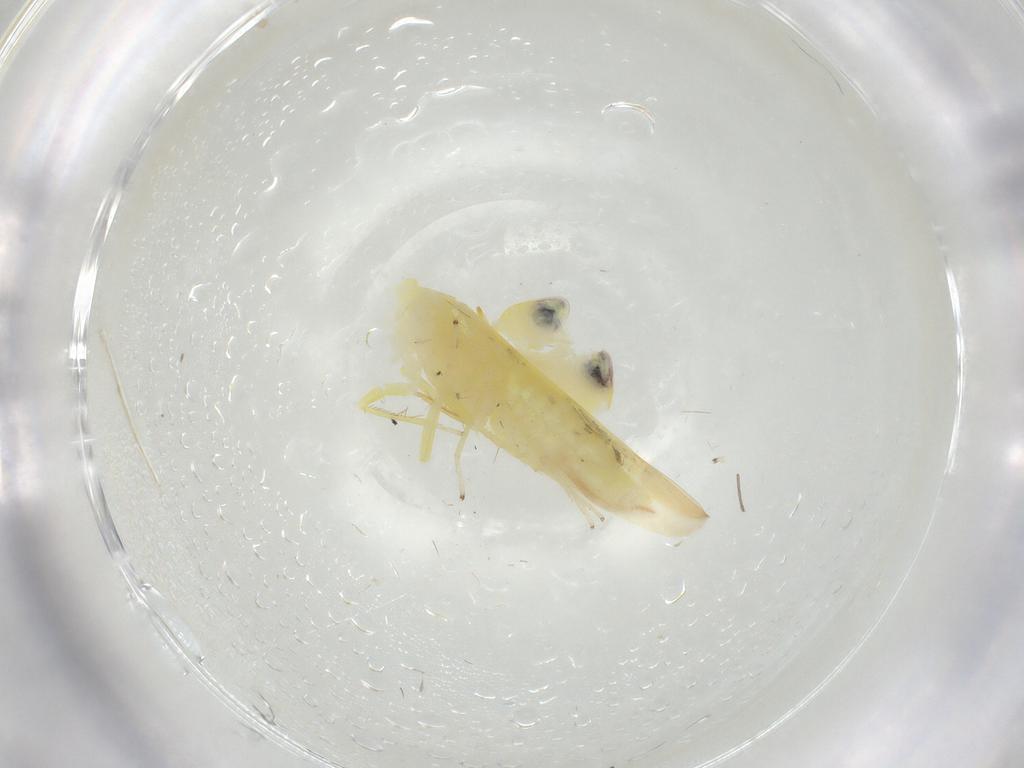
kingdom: Animalia
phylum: Arthropoda
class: Insecta
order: Hemiptera
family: Cicadellidae
